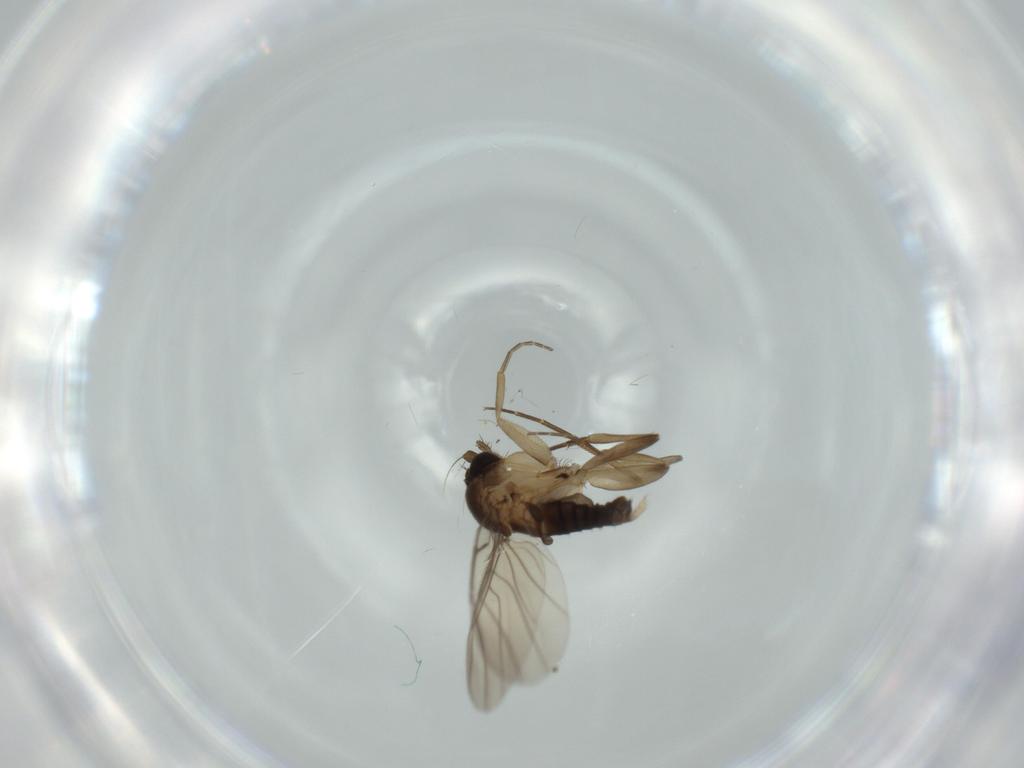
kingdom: Animalia
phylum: Arthropoda
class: Insecta
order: Diptera
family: Phoridae
